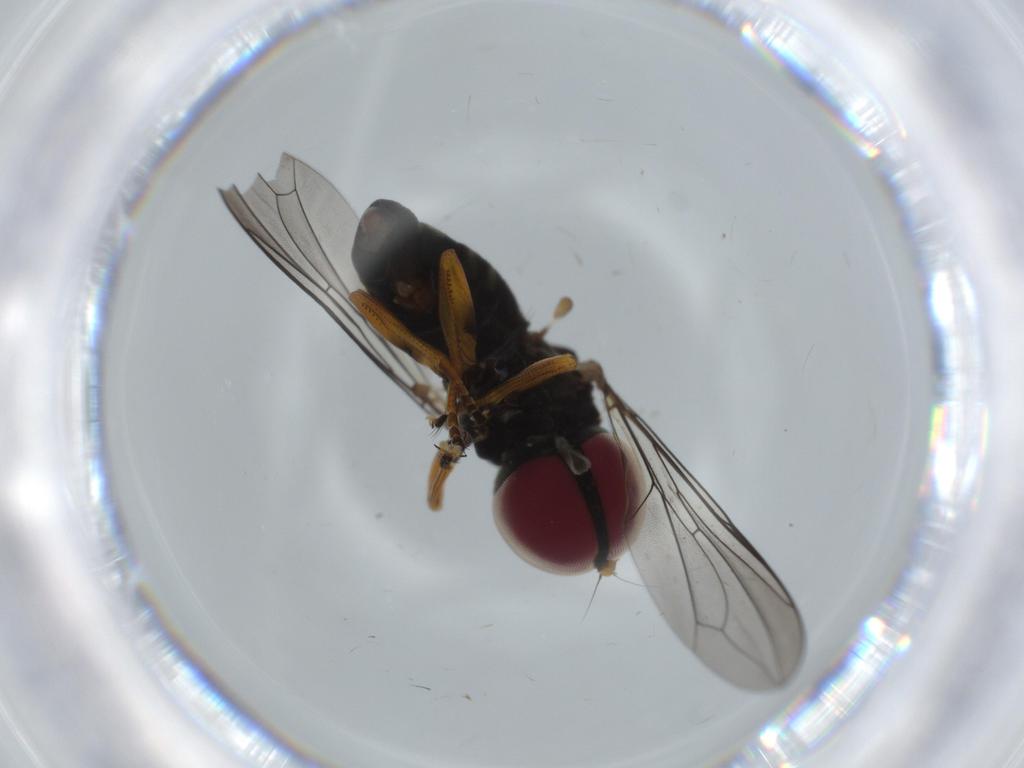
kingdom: Animalia
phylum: Arthropoda
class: Insecta
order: Diptera
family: Pipunculidae
